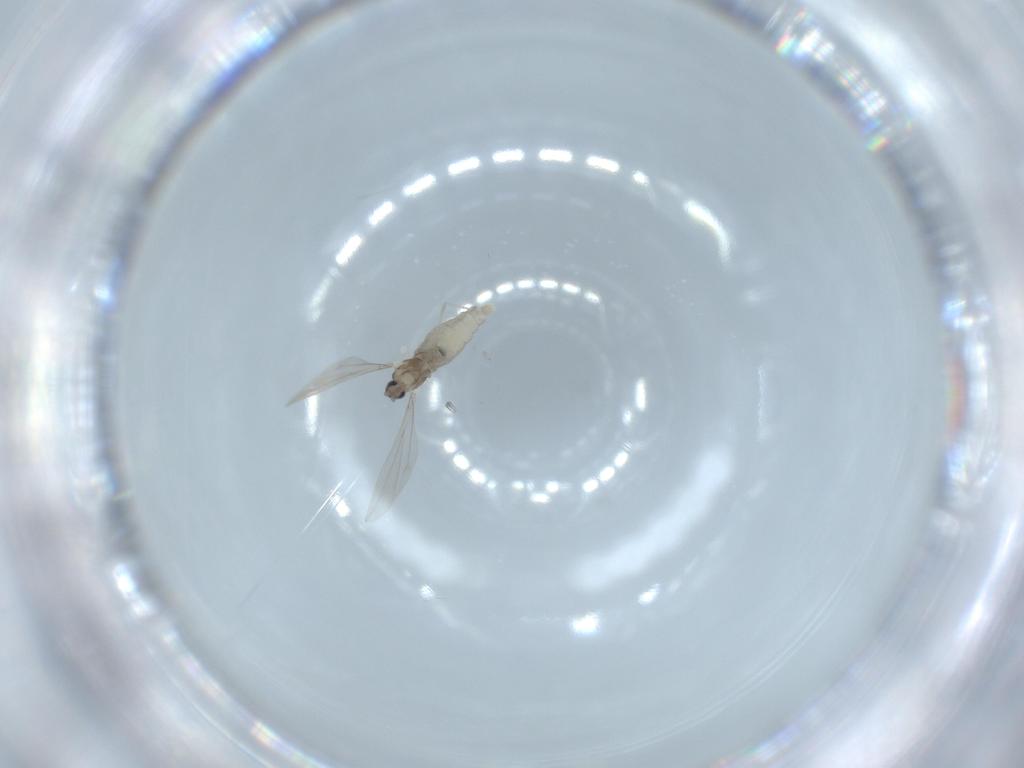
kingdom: Animalia
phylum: Arthropoda
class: Insecta
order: Diptera
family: Cecidomyiidae
